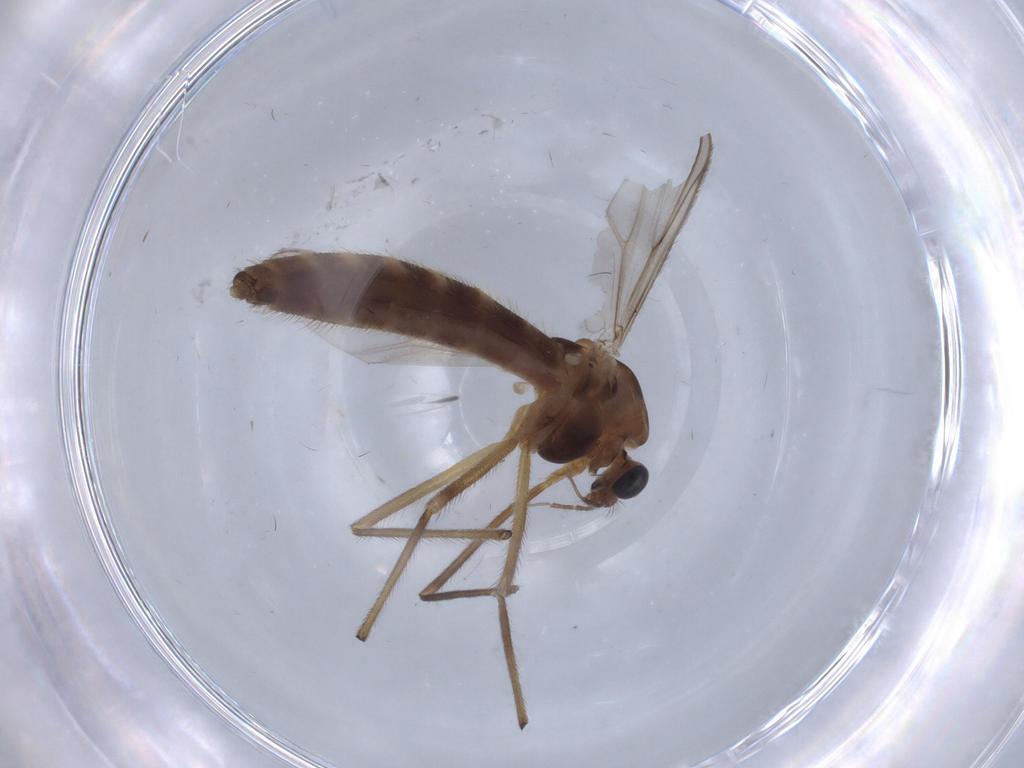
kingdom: Animalia
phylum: Arthropoda
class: Insecta
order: Diptera
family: Chironomidae
